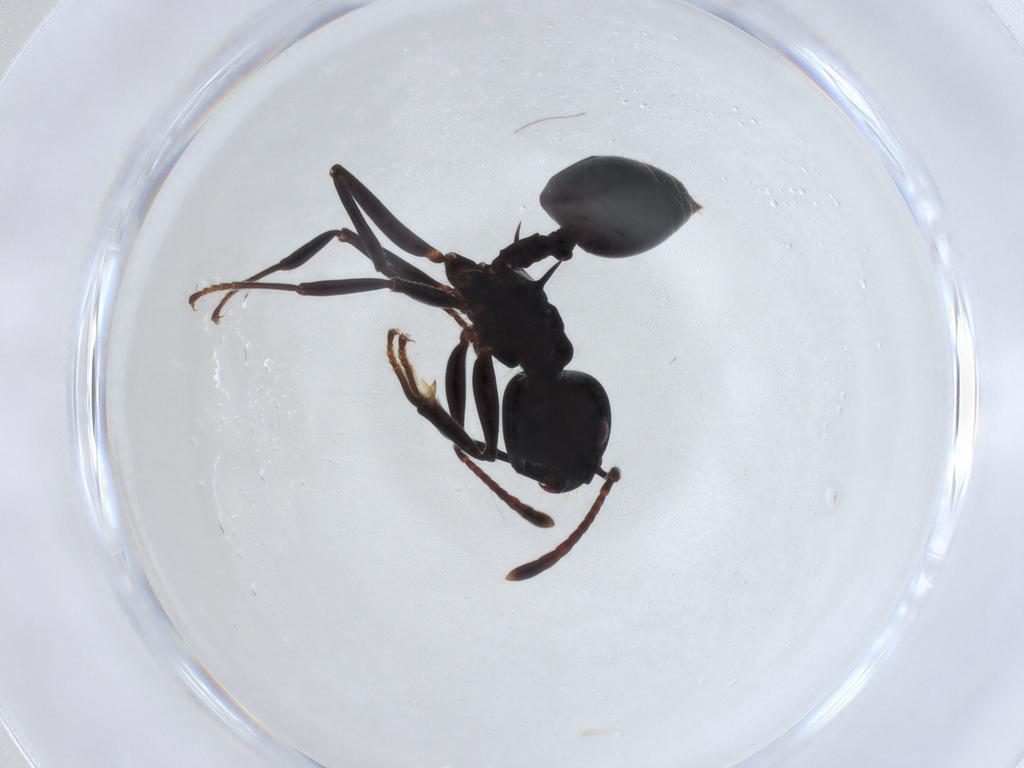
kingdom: Animalia
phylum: Arthropoda
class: Insecta
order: Hymenoptera
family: Formicidae
